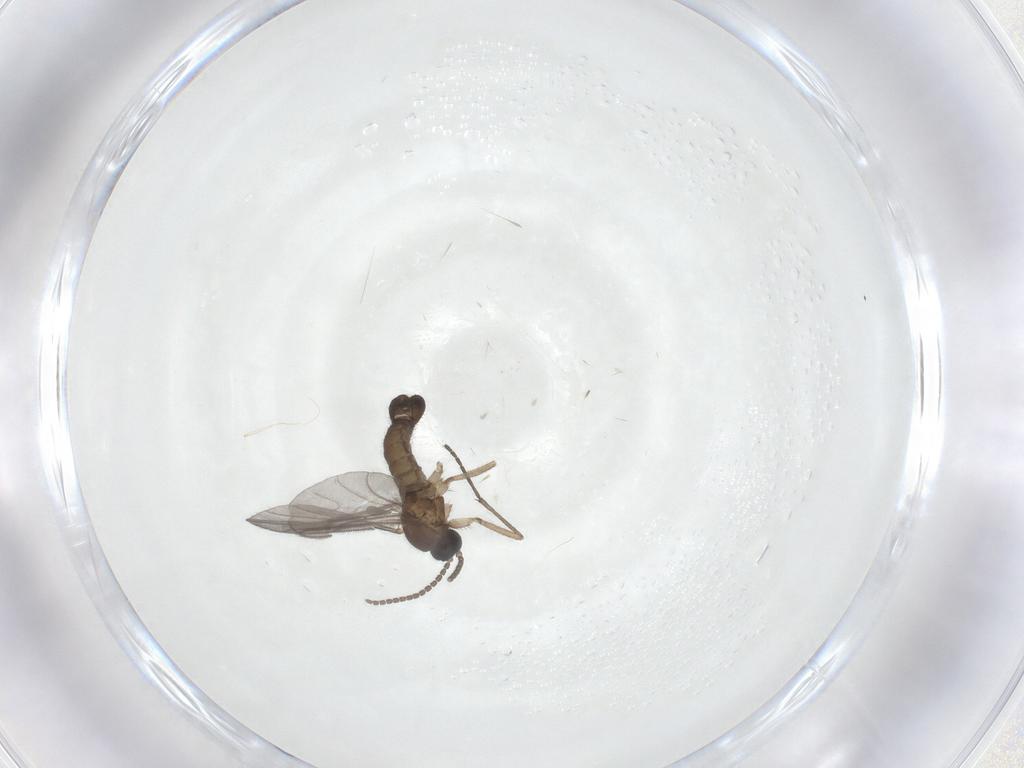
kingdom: Animalia
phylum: Arthropoda
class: Insecta
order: Diptera
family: Sciaridae
